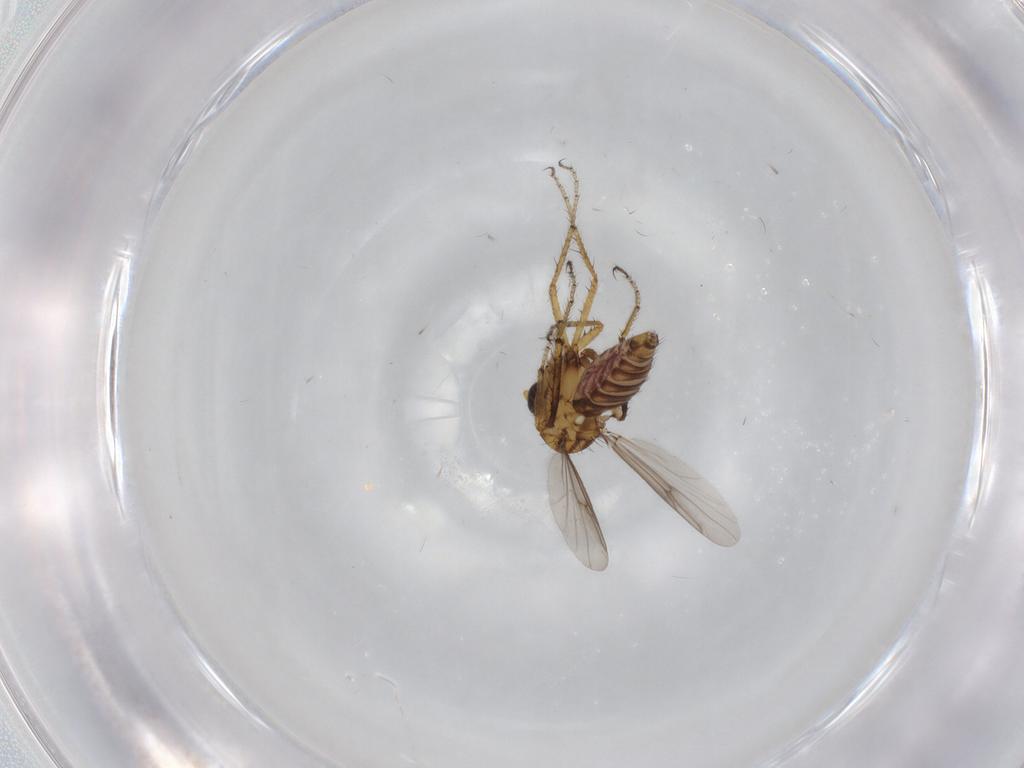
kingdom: Animalia
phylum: Arthropoda
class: Insecta
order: Diptera
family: Ceratopogonidae
